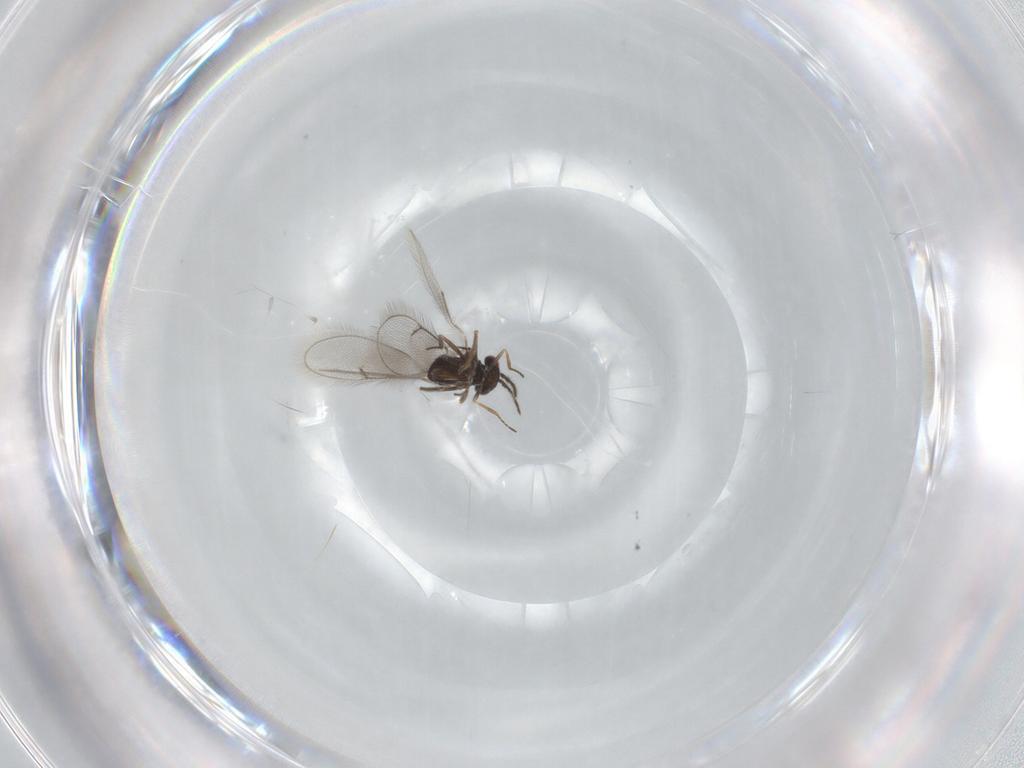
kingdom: Animalia
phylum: Arthropoda
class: Insecta
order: Hymenoptera
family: Eulophidae
